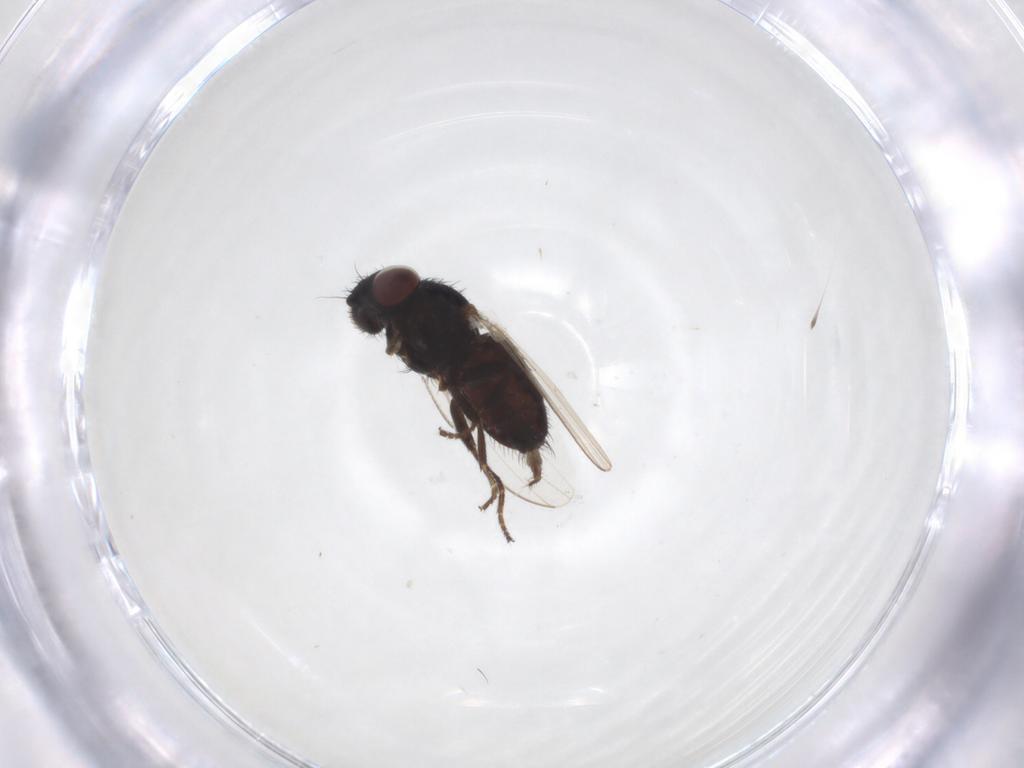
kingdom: Animalia
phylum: Arthropoda
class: Insecta
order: Diptera
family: Milichiidae
